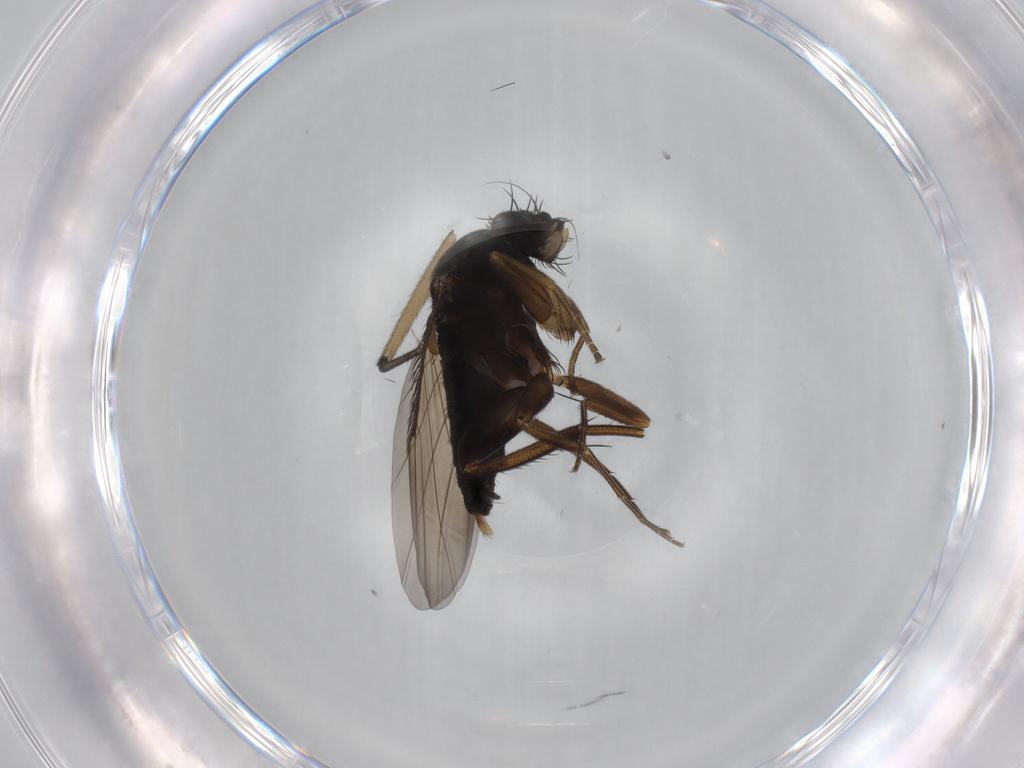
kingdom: Animalia
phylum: Arthropoda
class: Insecta
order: Diptera
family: Phoridae
